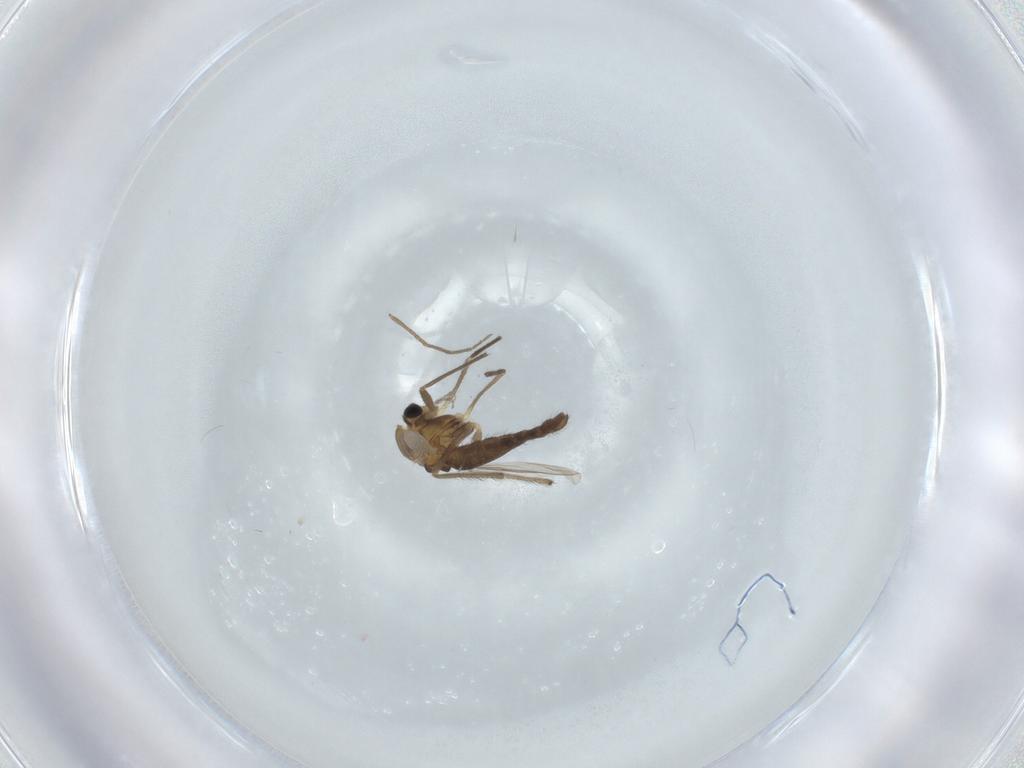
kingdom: Animalia
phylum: Arthropoda
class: Insecta
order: Diptera
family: Chironomidae
